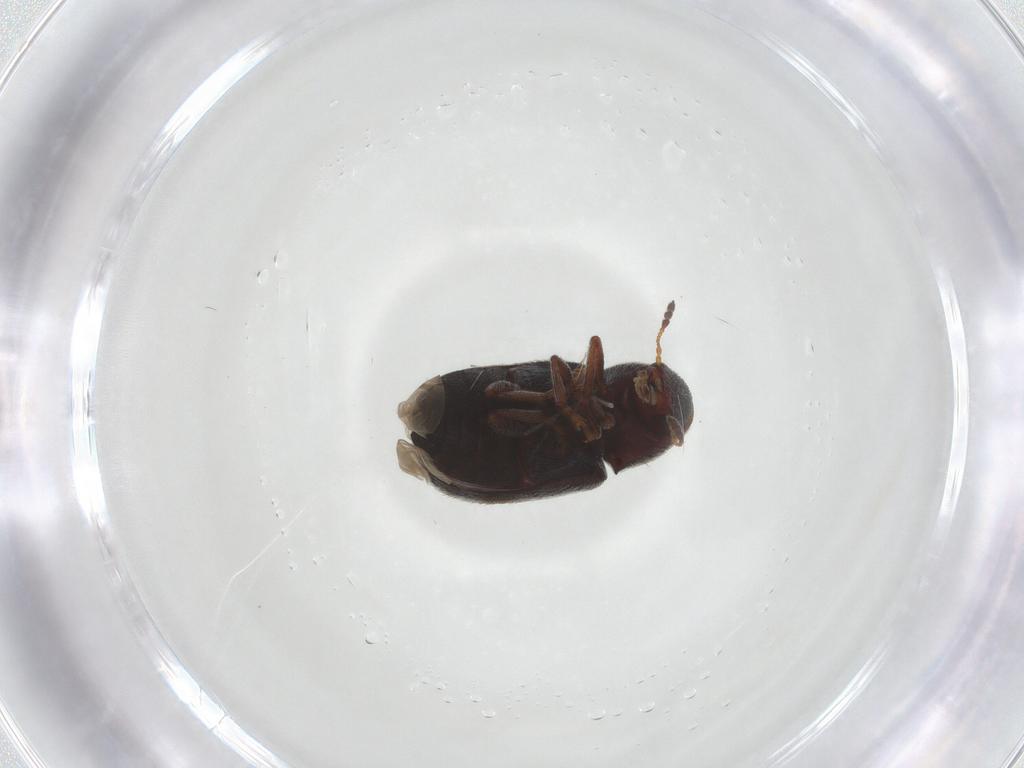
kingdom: Animalia
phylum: Arthropoda
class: Insecta
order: Coleoptera
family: Anthribidae
